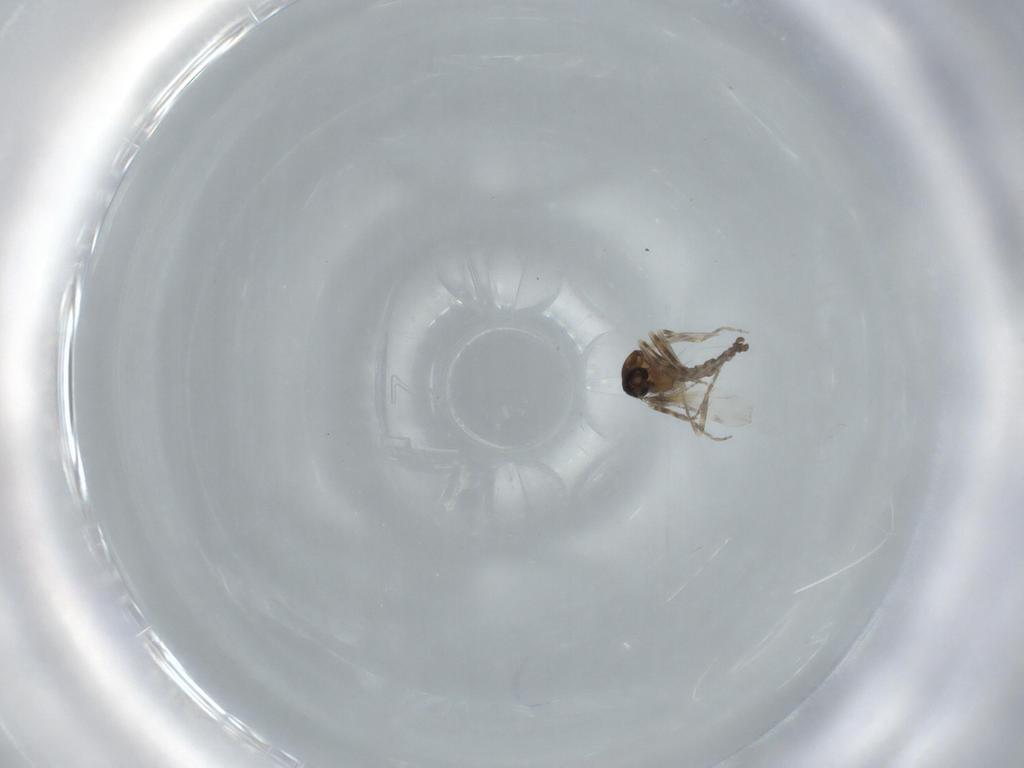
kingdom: Animalia
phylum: Arthropoda
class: Insecta
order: Diptera
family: Ceratopogonidae
